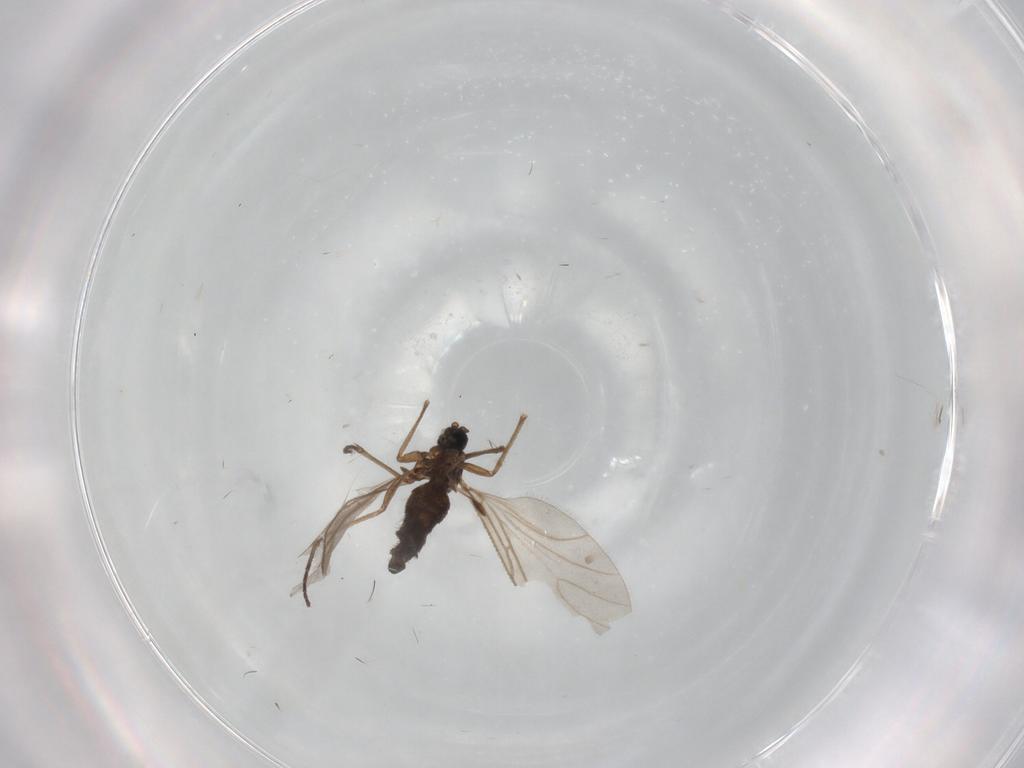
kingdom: Animalia
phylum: Arthropoda
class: Insecta
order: Diptera
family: Sciaridae
